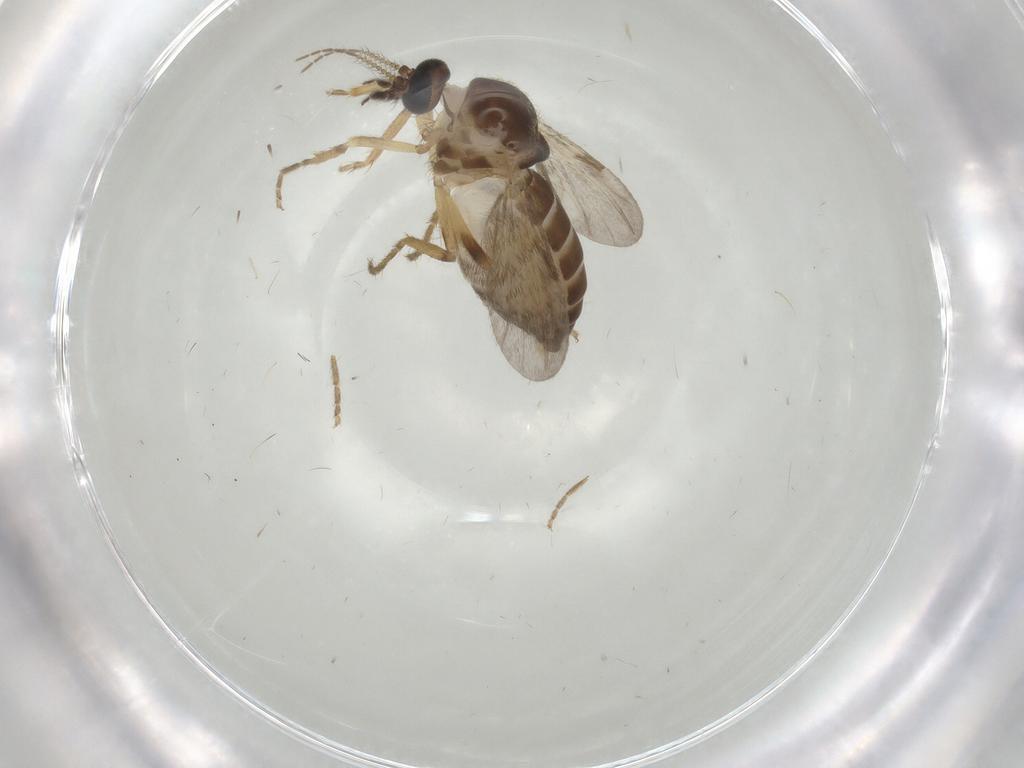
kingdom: Animalia
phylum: Arthropoda
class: Insecta
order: Diptera
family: Ceratopogonidae
